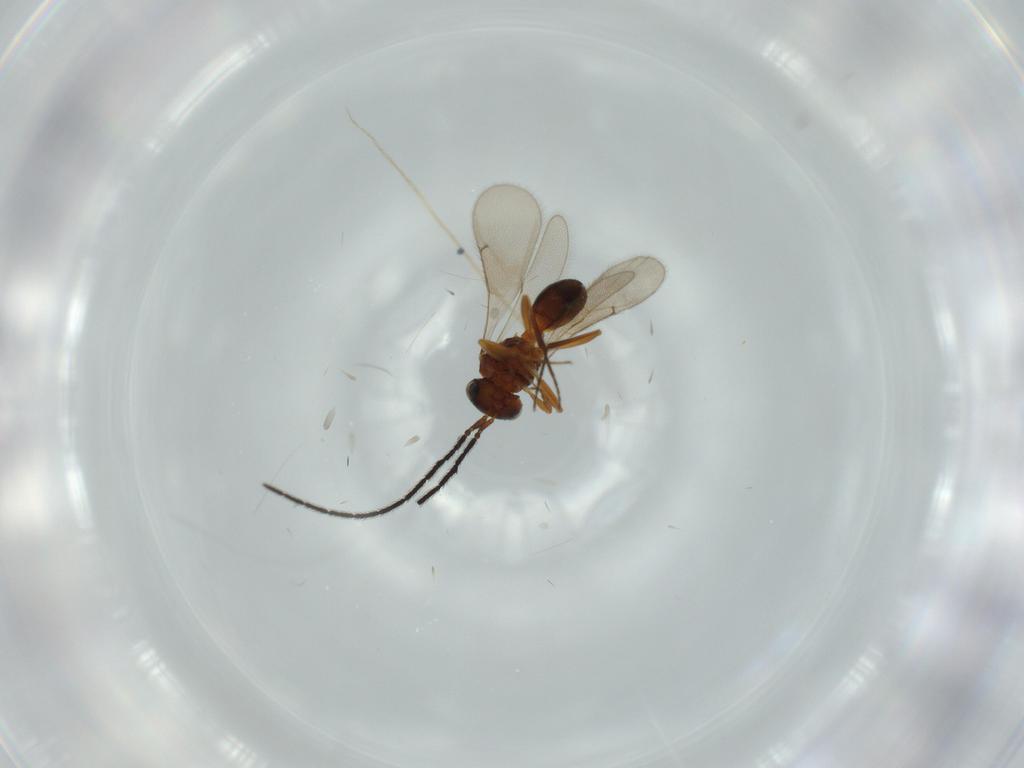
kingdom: Animalia
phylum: Arthropoda
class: Insecta
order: Hymenoptera
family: Scelionidae
